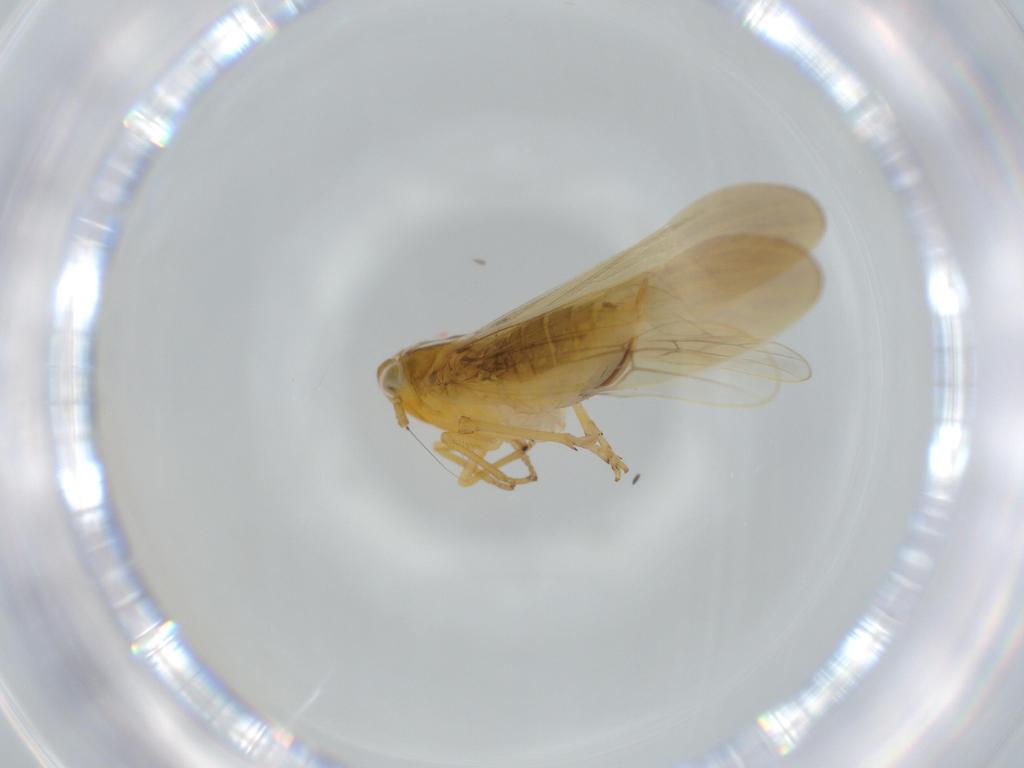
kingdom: Animalia
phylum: Arthropoda
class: Insecta
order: Hemiptera
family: Delphacidae
